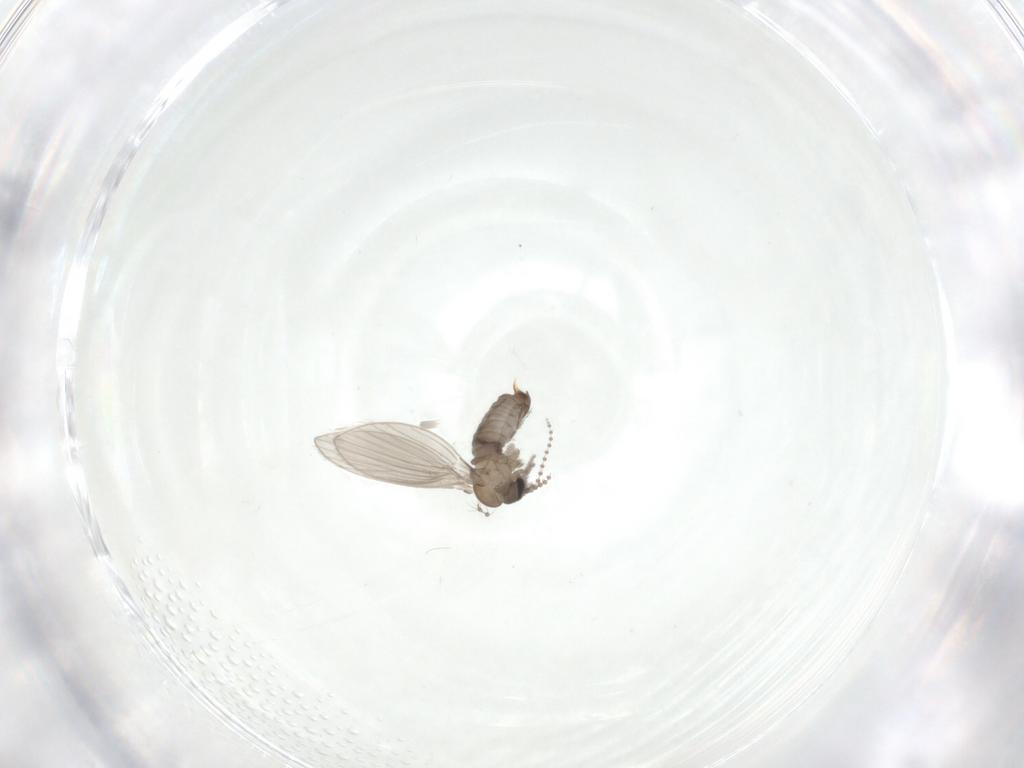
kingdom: Animalia
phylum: Arthropoda
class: Insecta
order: Diptera
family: Psychodidae
